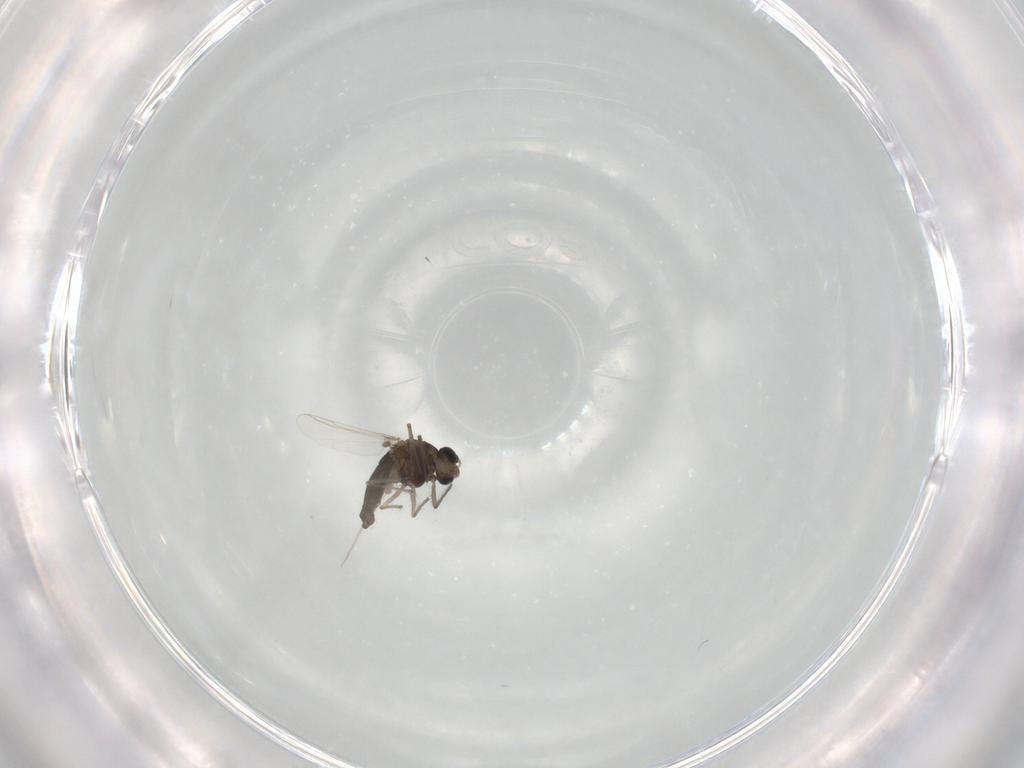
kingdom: Animalia
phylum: Arthropoda
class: Insecta
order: Diptera
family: Chironomidae
